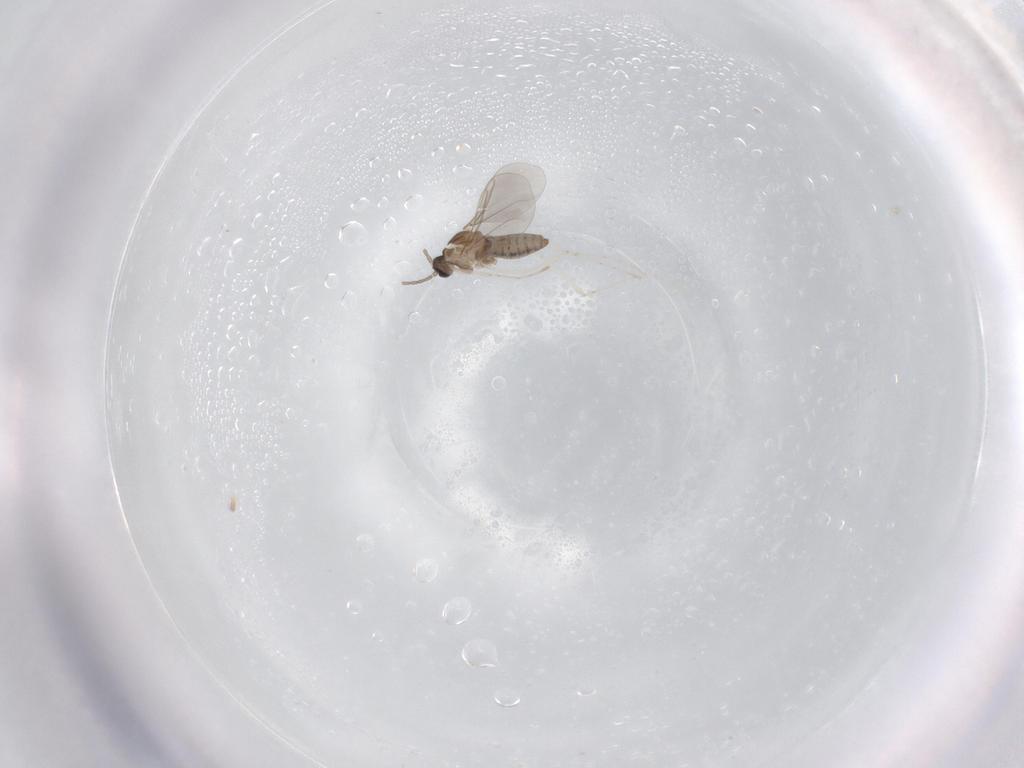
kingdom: Animalia
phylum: Arthropoda
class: Insecta
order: Diptera
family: Cecidomyiidae
